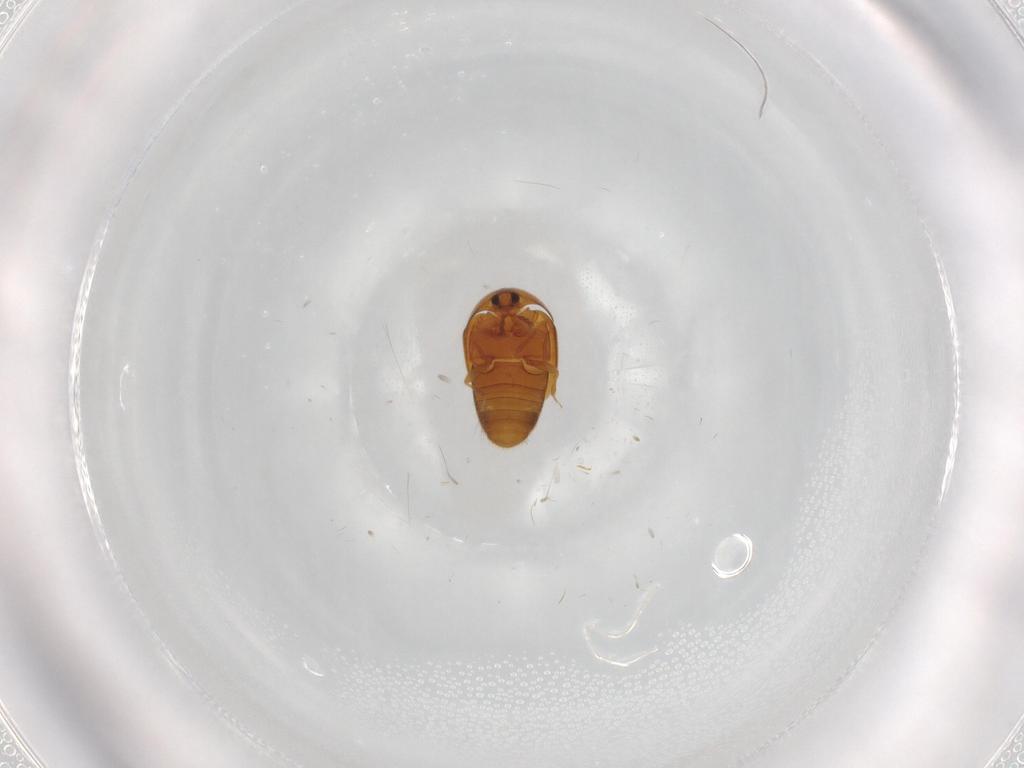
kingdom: Animalia
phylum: Arthropoda
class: Insecta
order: Coleoptera
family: Corylophidae
